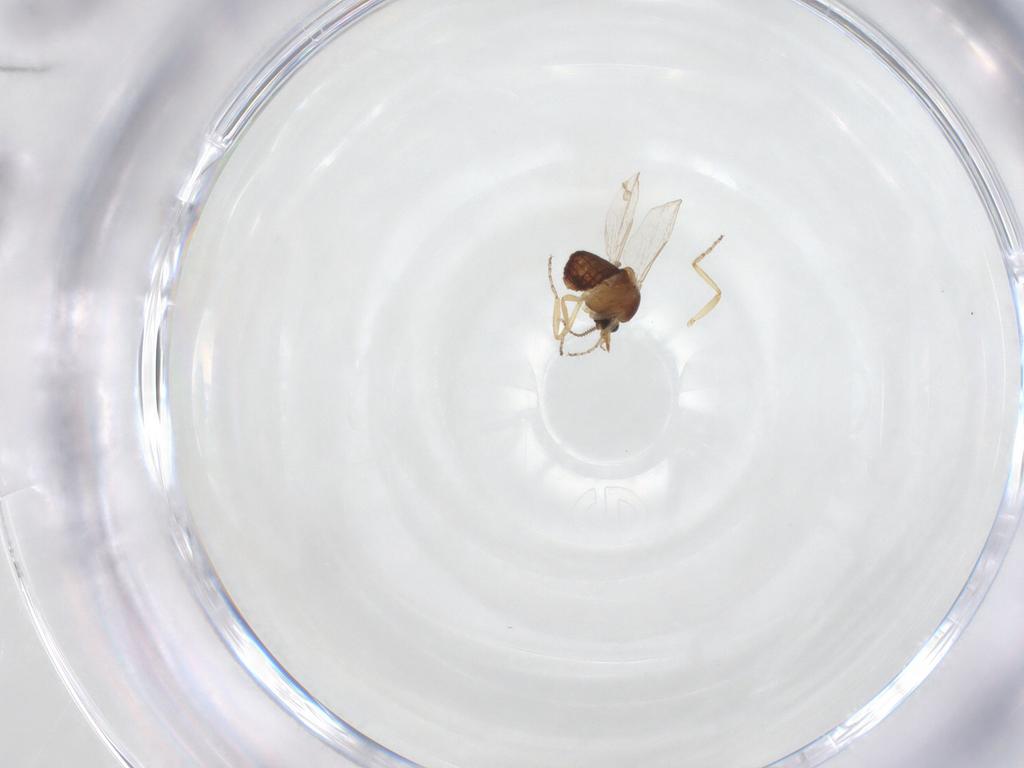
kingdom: Animalia
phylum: Arthropoda
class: Insecta
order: Diptera
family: Ceratopogonidae
